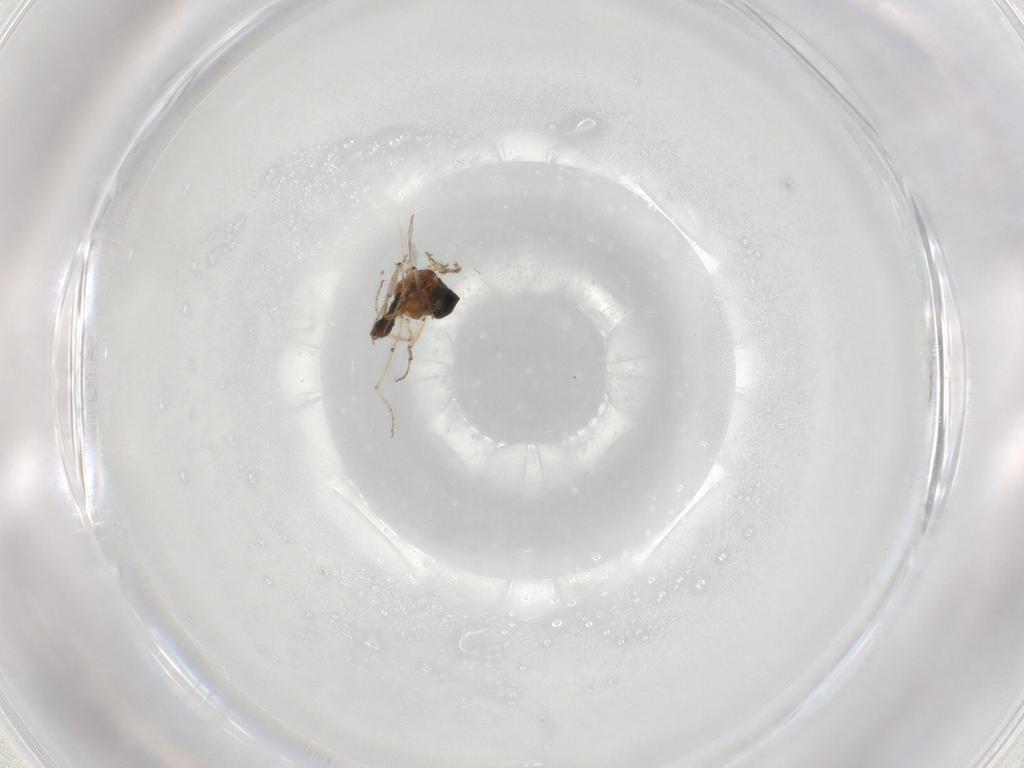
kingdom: Animalia
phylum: Arthropoda
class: Insecta
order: Diptera
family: Ceratopogonidae
